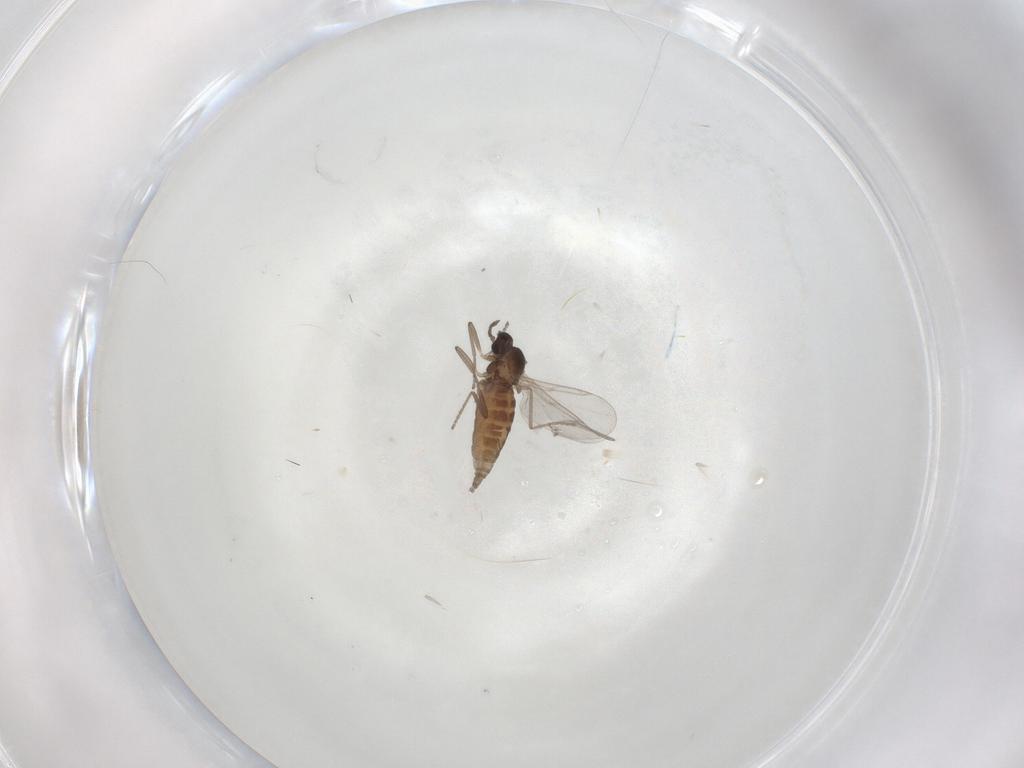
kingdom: Animalia
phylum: Arthropoda
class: Insecta
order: Diptera
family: Cecidomyiidae
